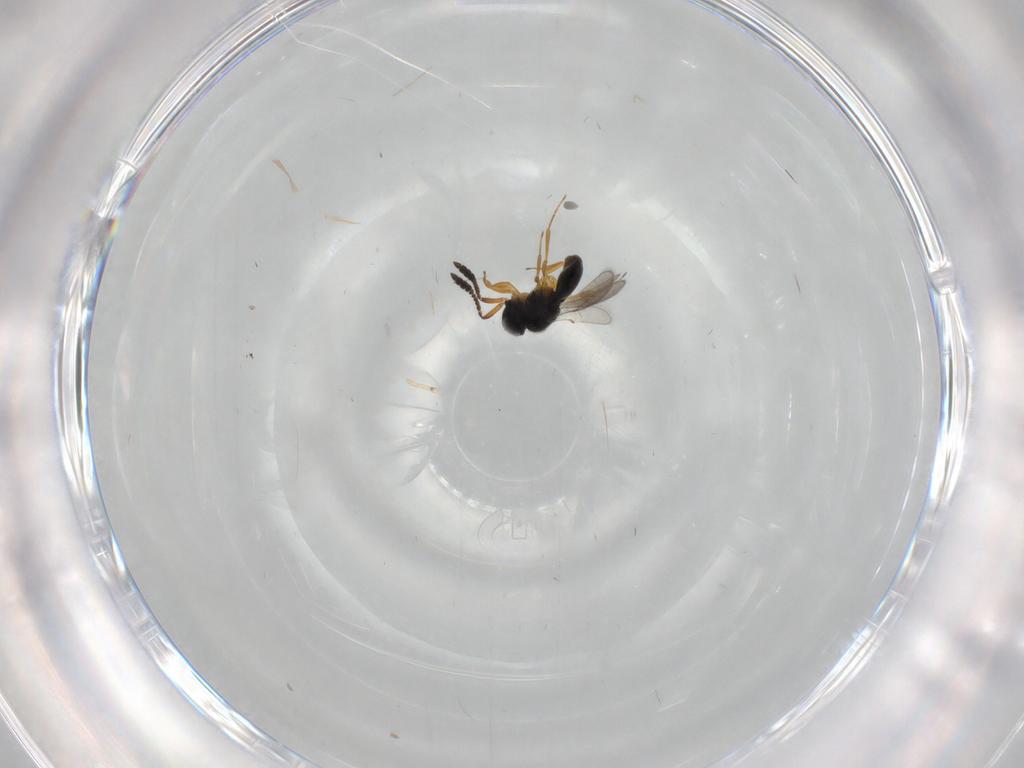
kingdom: Animalia
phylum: Arthropoda
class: Insecta
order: Hymenoptera
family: Scelionidae
